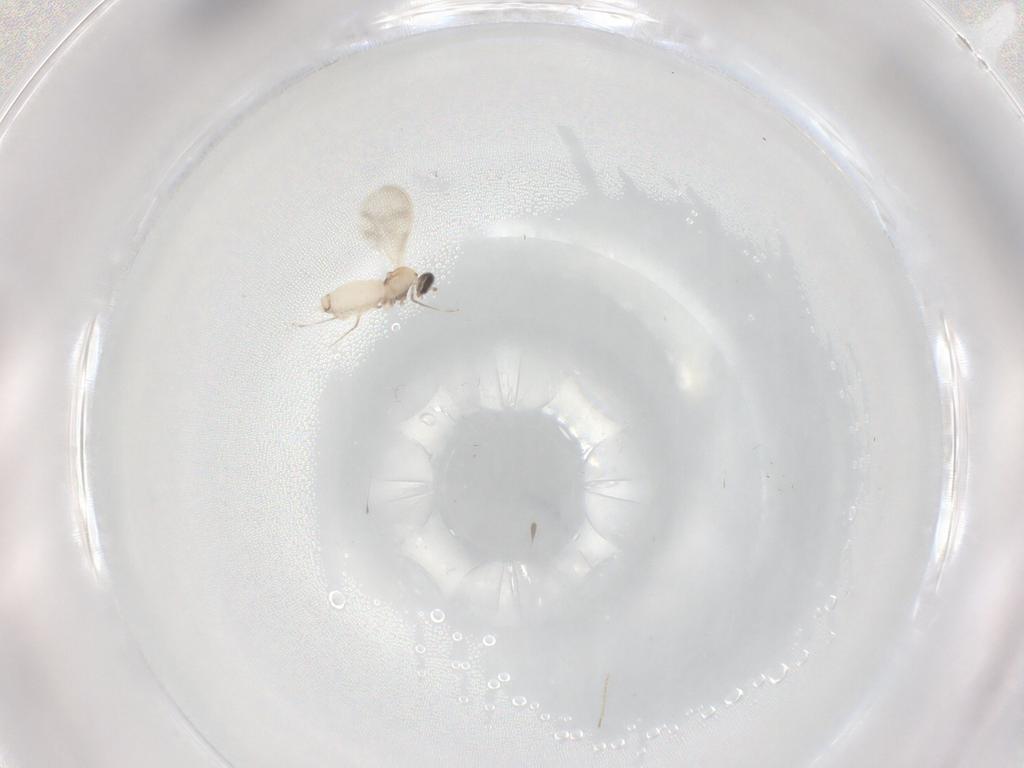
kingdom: Animalia
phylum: Arthropoda
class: Insecta
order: Diptera
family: Cecidomyiidae
